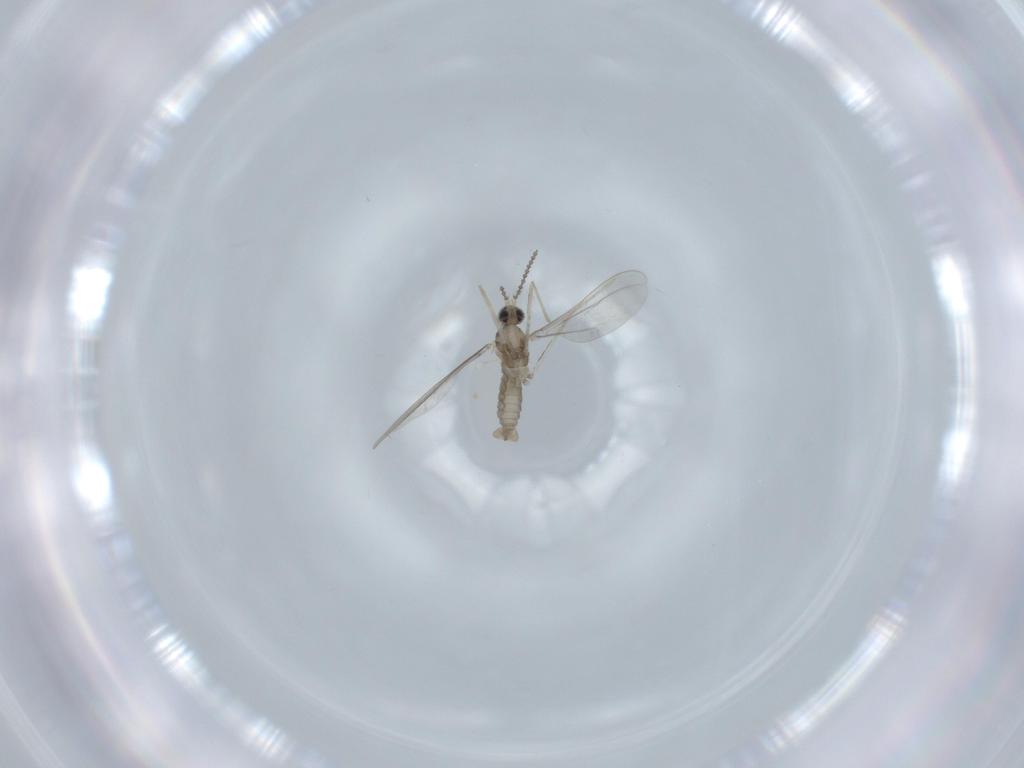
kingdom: Animalia
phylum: Arthropoda
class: Insecta
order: Diptera
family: Cecidomyiidae
